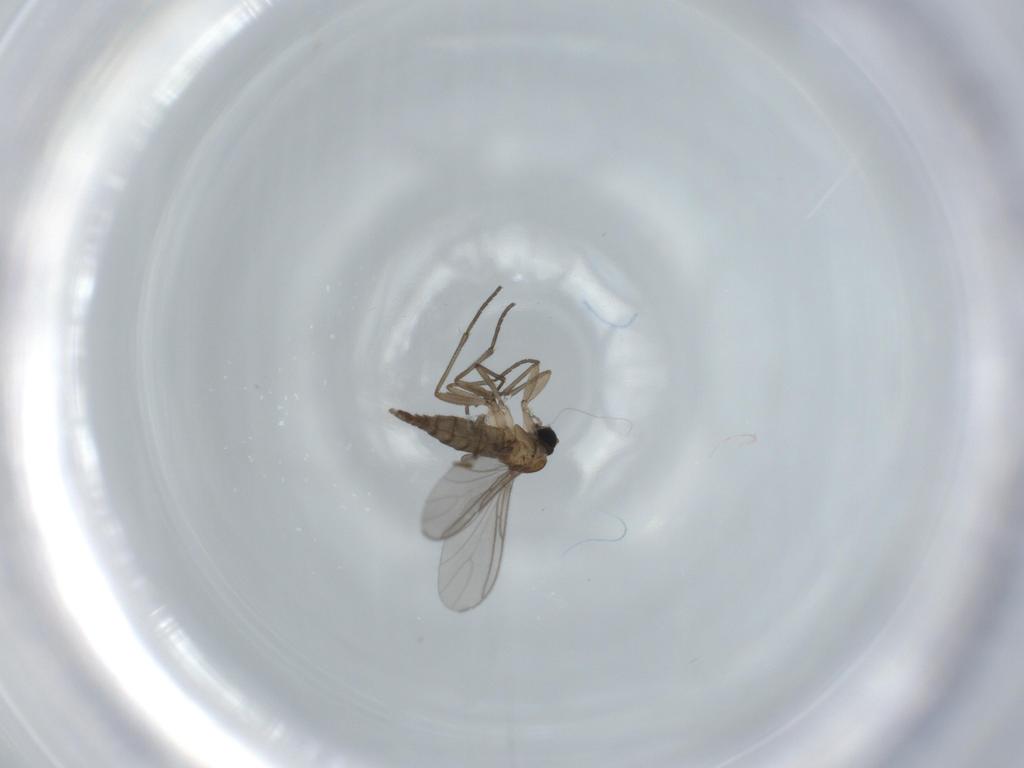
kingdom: Animalia
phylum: Arthropoda
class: Insecta
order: Diptera
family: Sciaridae
